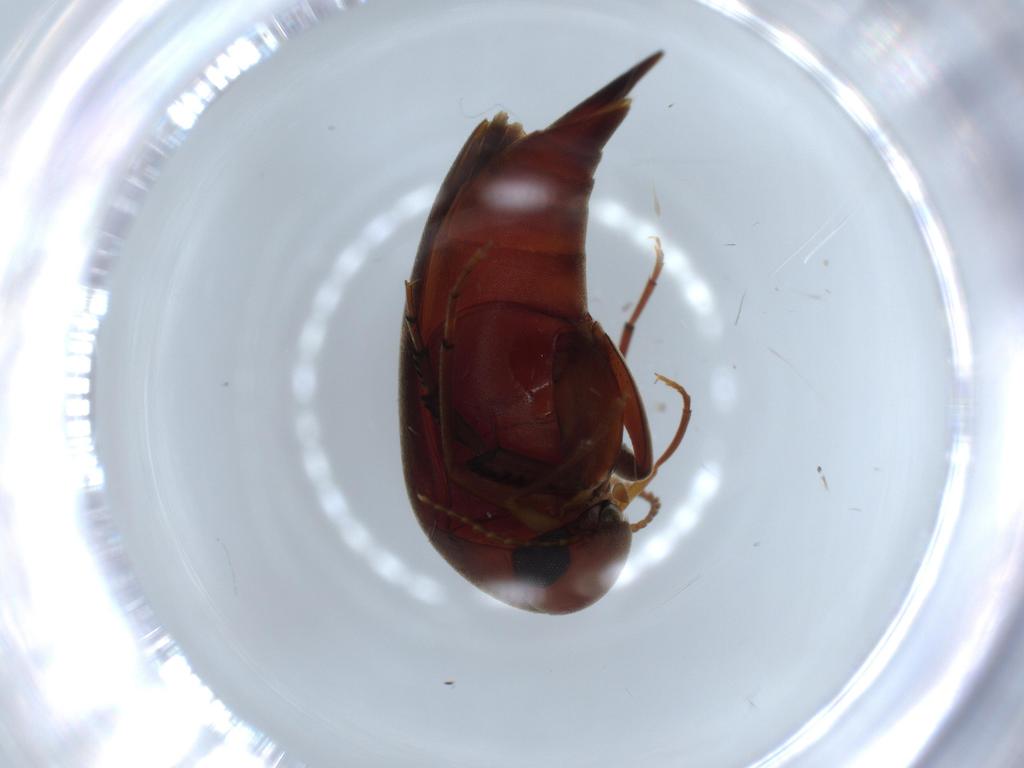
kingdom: Animalia
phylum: Arthropoda
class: Insecta
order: Coleoptera
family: Mordellidae
